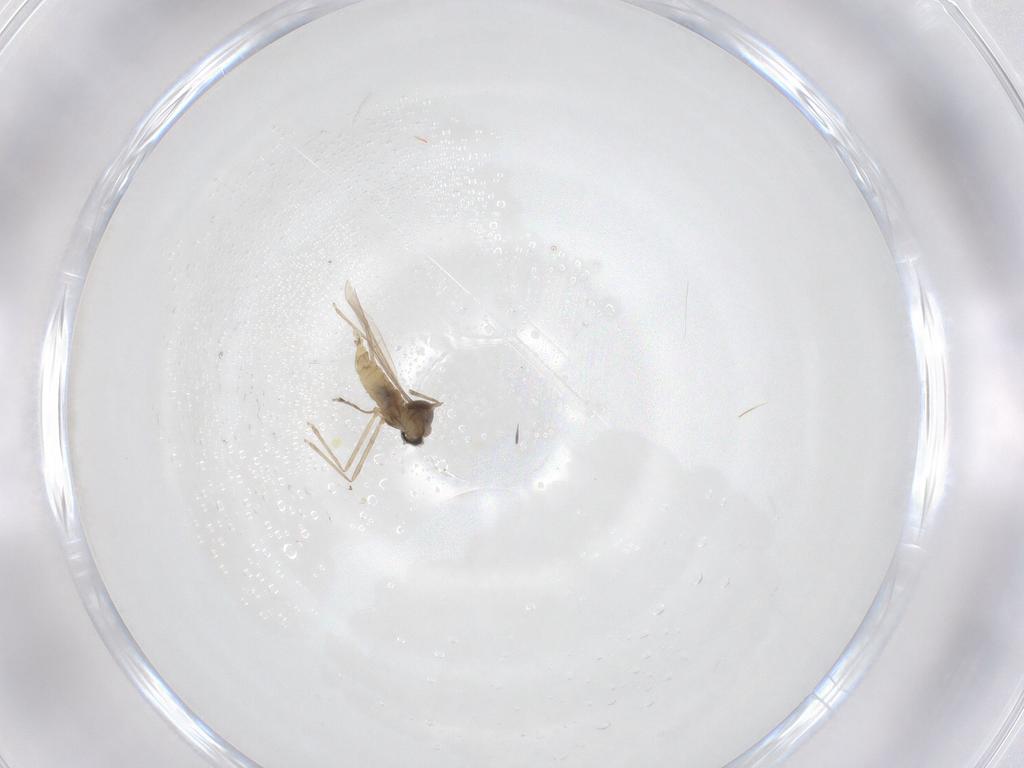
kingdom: Animalia
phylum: Arthropoda
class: Insecta
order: Diptera
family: Cecidomyiidae
